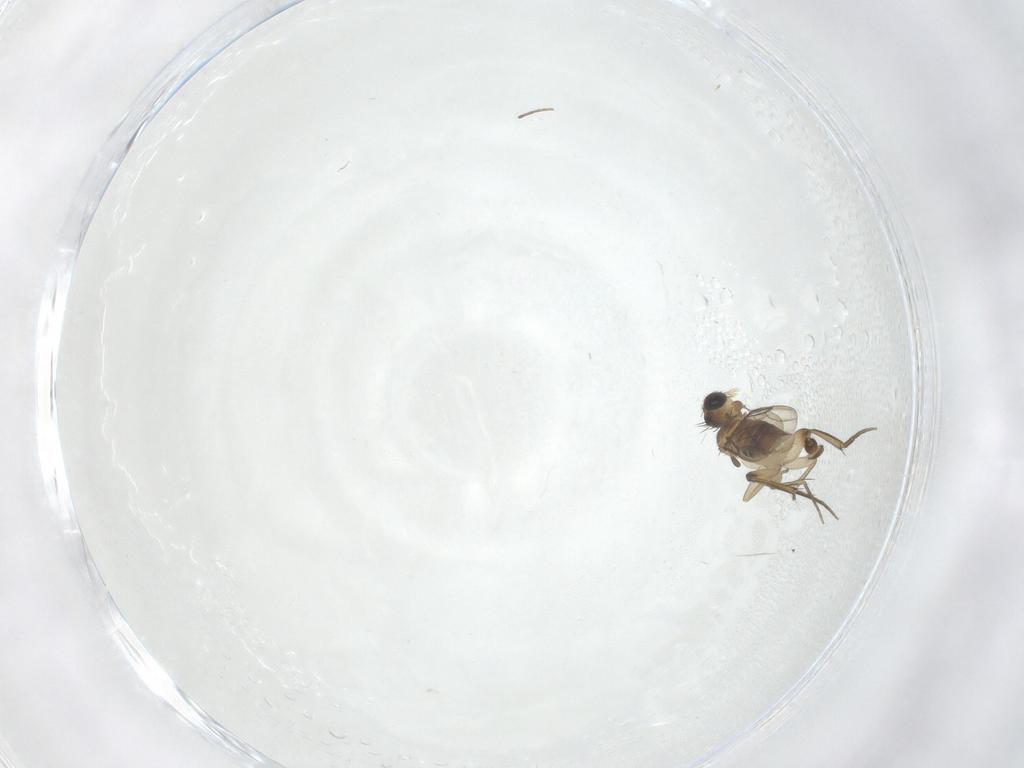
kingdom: Animalia
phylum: Arthropoda
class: Insecta
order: Diptera
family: Phoridae
